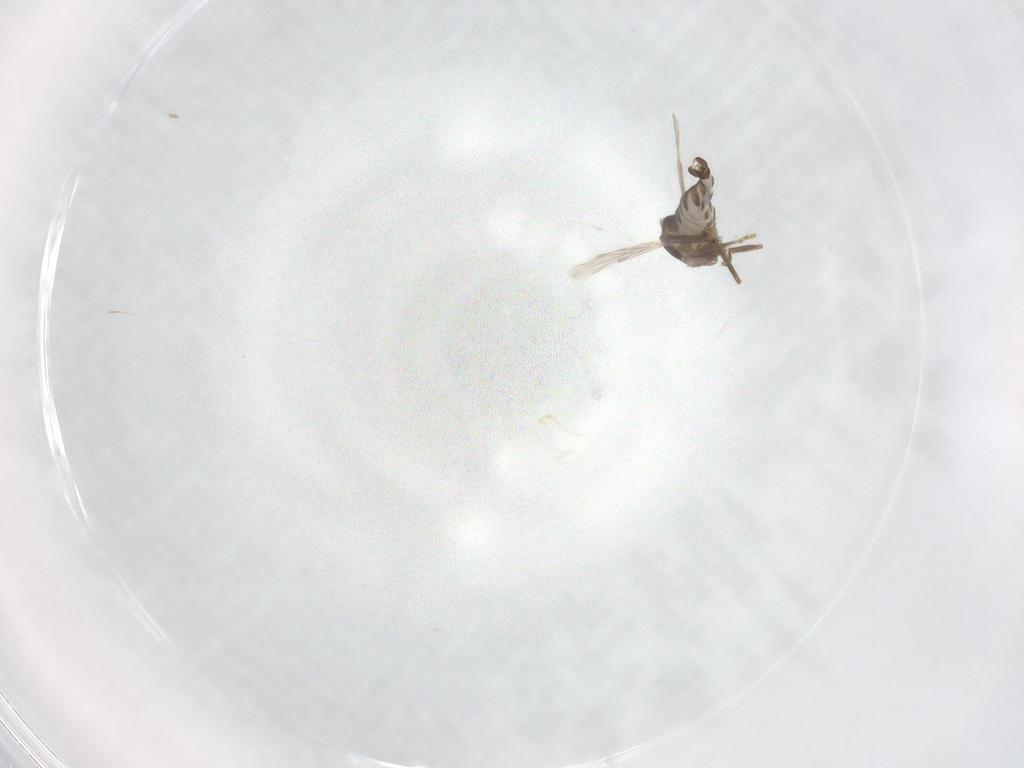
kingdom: Animalia
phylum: Arthropoda
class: Insecta
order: Diptera
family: Ceratopogonidae
